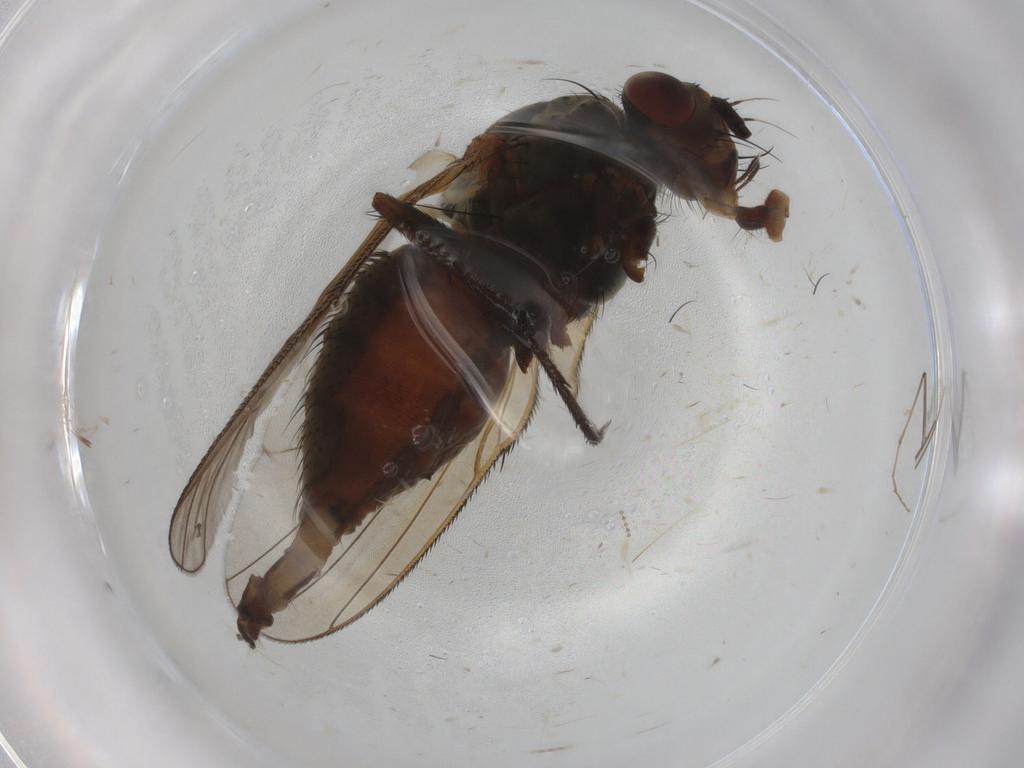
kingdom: Animalia
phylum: Arthropoda
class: Insecta
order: Diptera
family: Anthomyiidae
